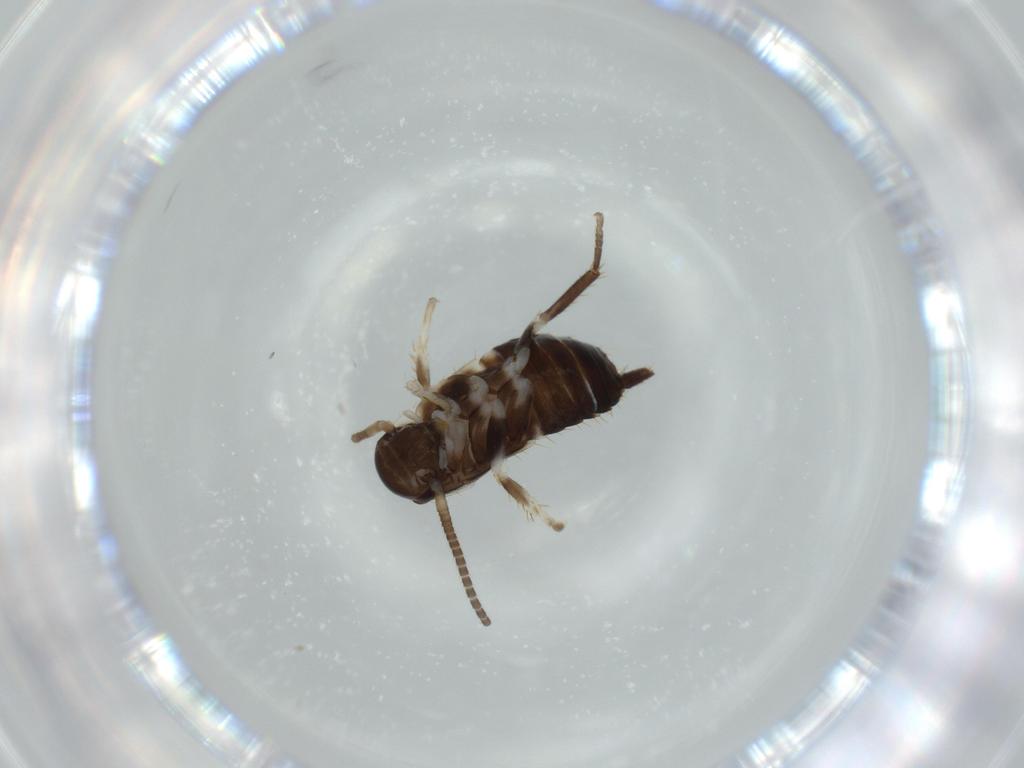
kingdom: Animalia
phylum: Arthropoda
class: Insecta
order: Blattodea
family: Ectobiidae
